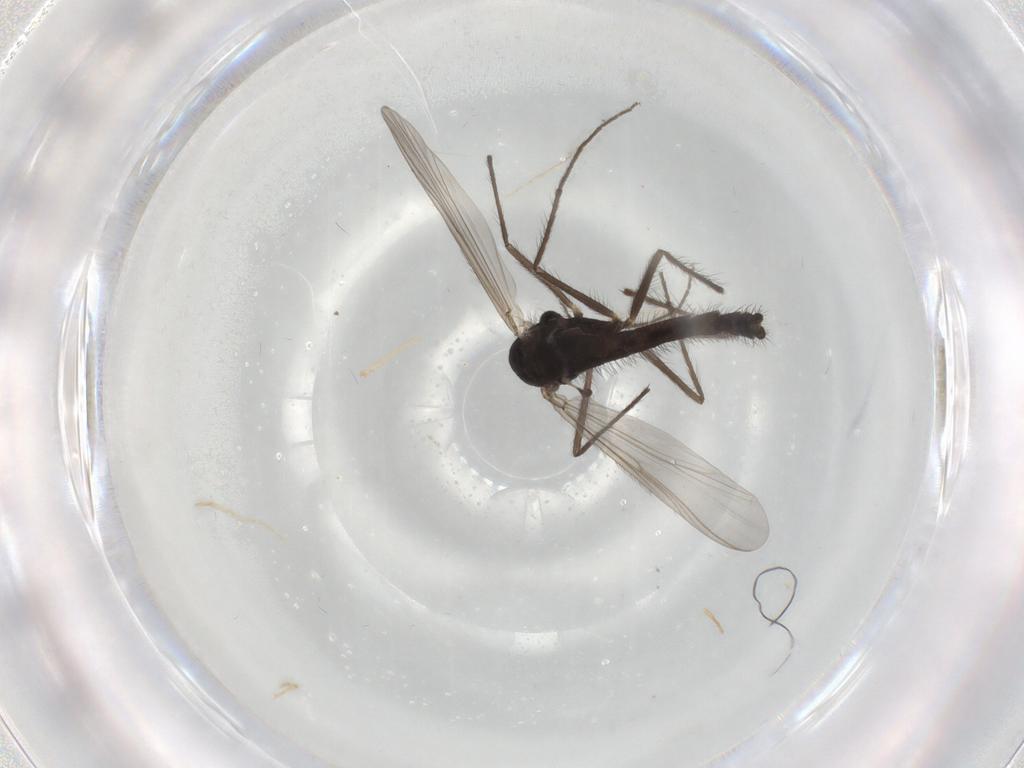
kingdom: Animalia
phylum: Arthropoda
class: Insecta
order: Diptera
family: Chironomidae
